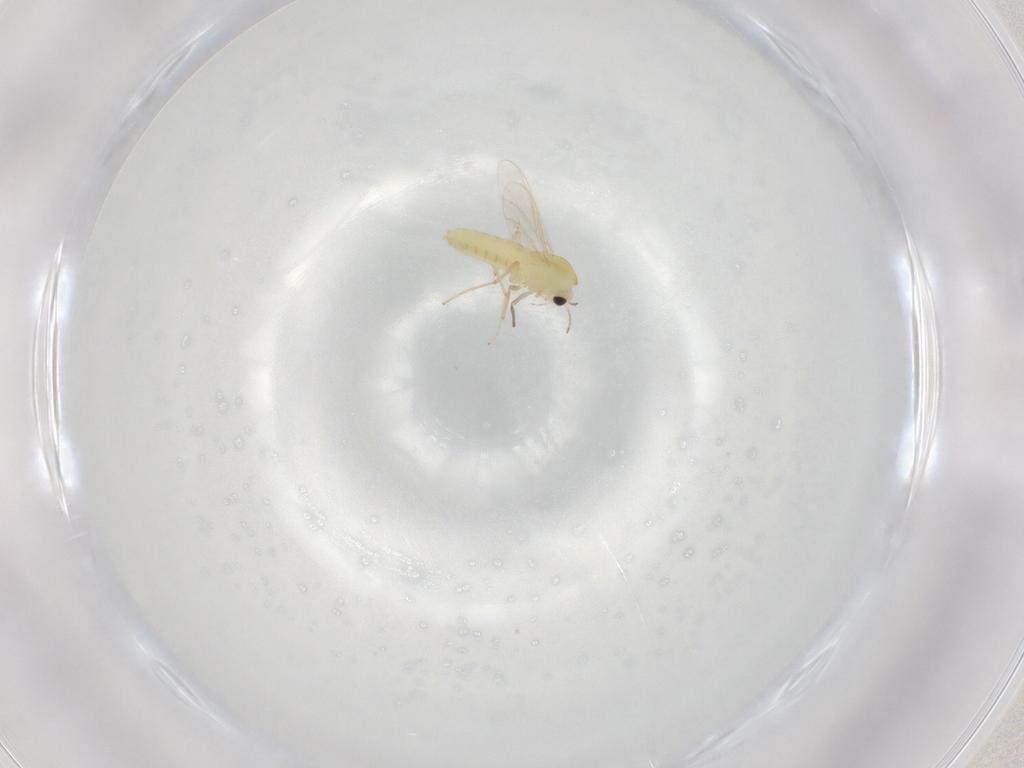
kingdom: Animalia
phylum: Arthropoda
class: Insecta
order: Diptera
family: Chironomidae
